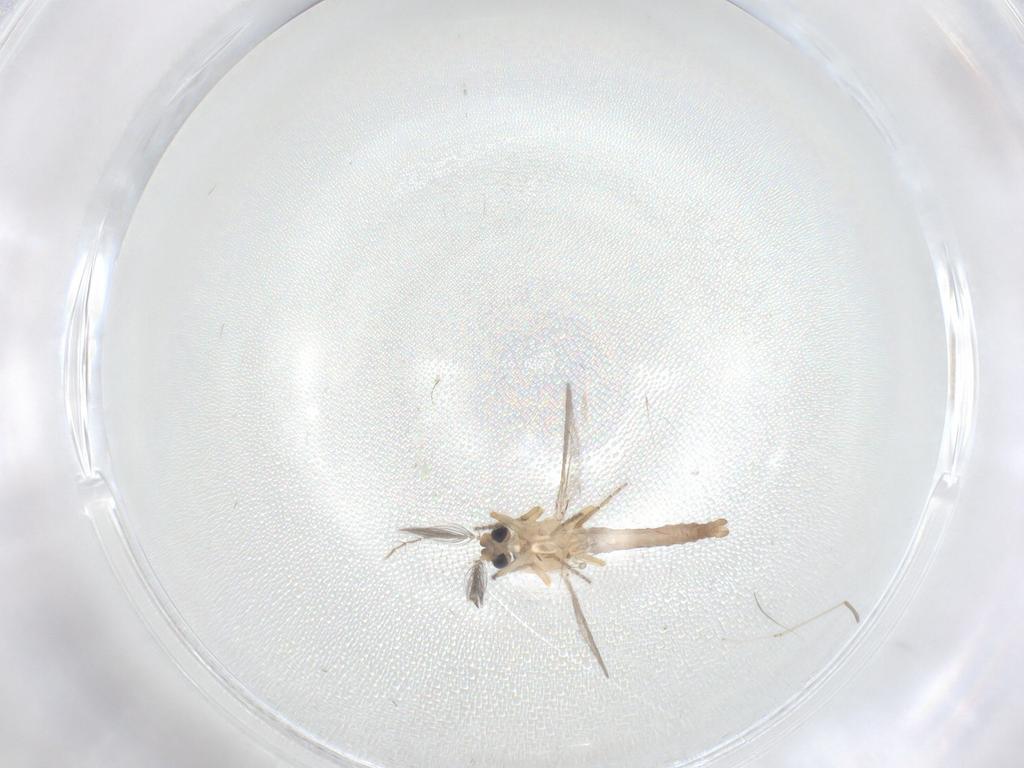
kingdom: Animalia
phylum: Arthropoda
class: Insecta
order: Diptera
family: Ceratopogonidae
